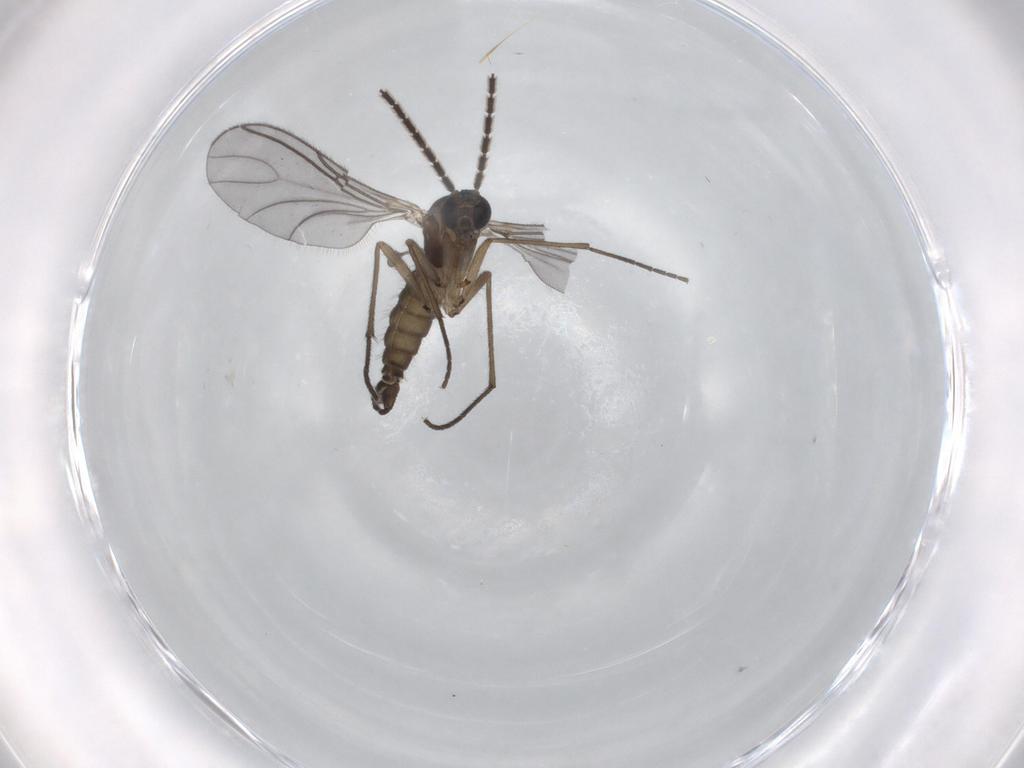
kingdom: Animalia
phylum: Arthropoda
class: Insecta
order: Diptera
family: Sciaridae
